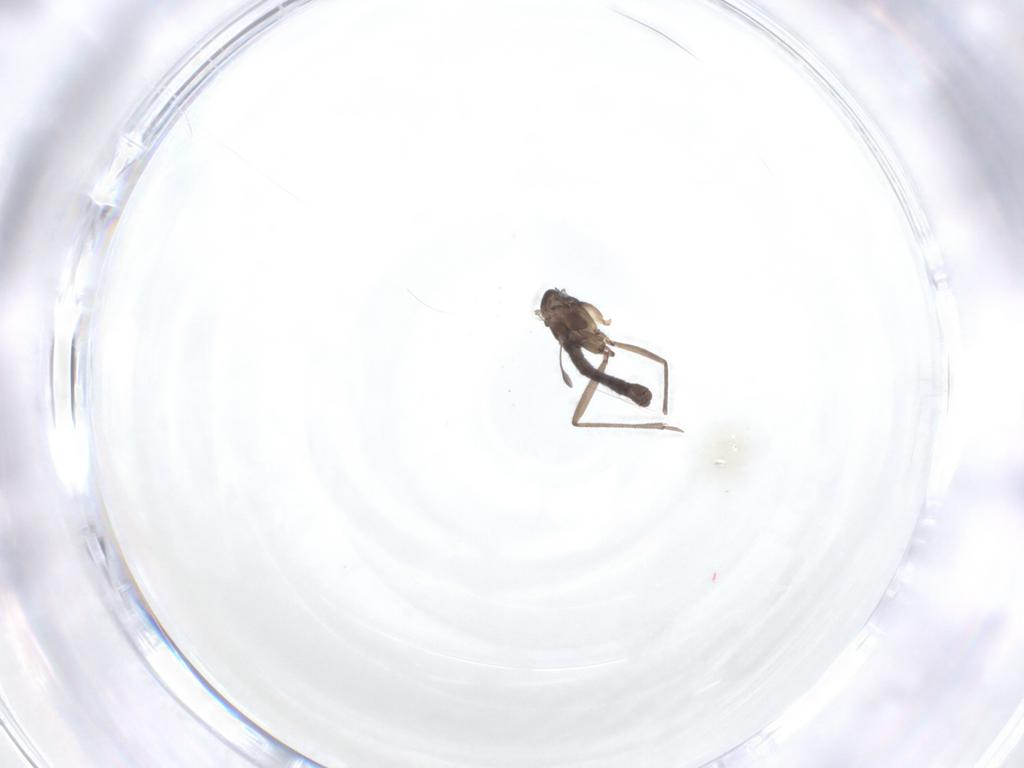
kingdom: Animalia
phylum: Arthropoda
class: Insecta
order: Diptera
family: Sciaridae
